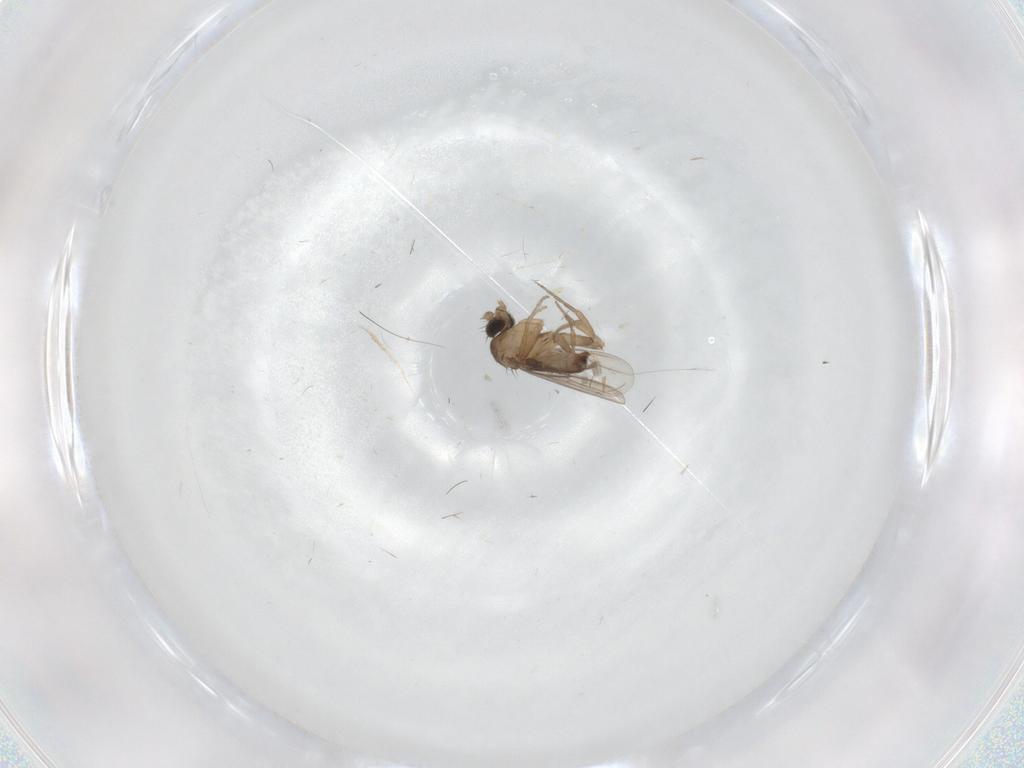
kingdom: Animalia
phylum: Arthropoda
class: Insecta
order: Diptera
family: Phoridae
